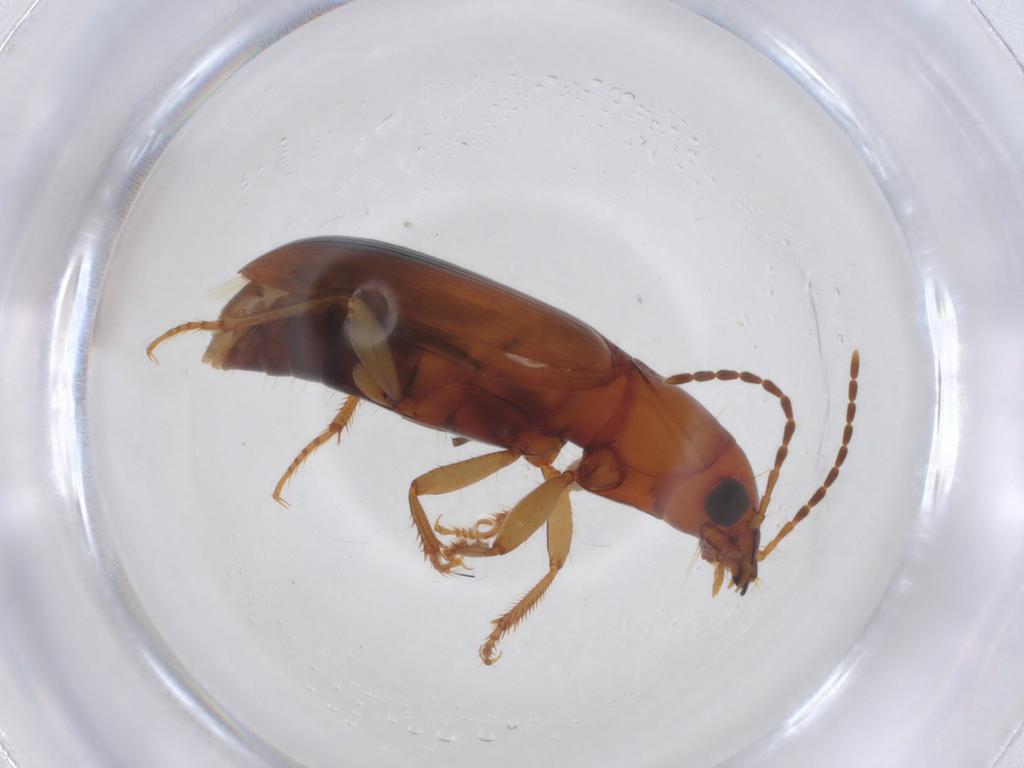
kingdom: Animalia
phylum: Arthropoda
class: Insecta
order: Coleoptera
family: Carabidae
